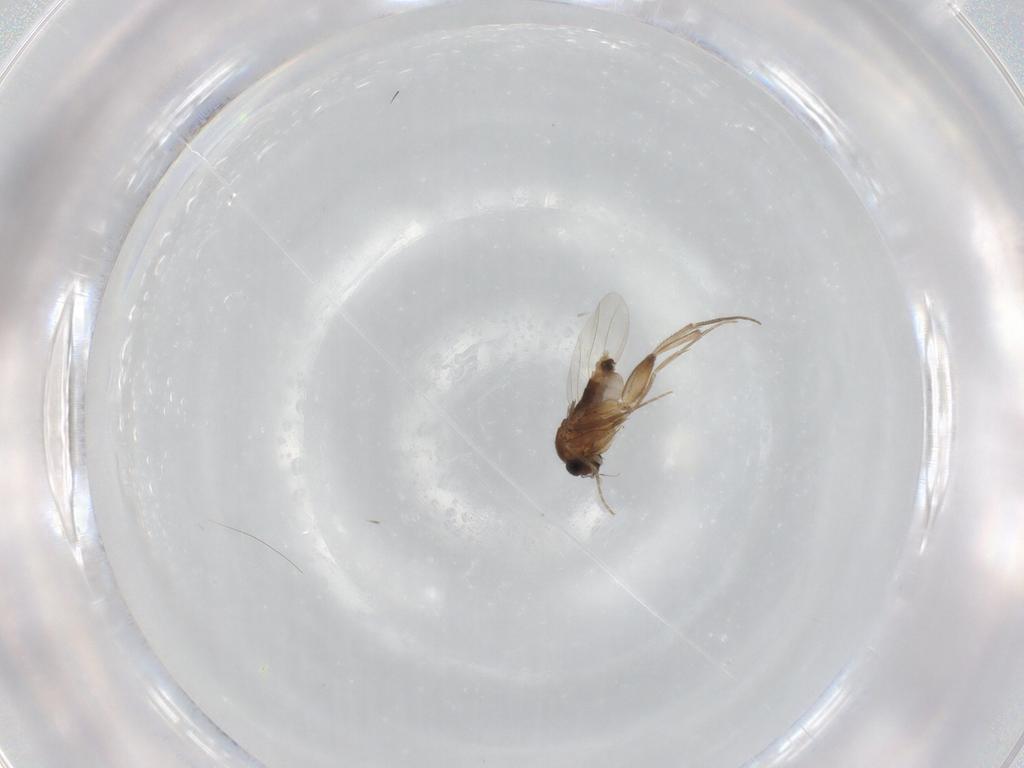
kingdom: Animalia
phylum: Arthropoda
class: Insecta
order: Diptera
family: Phoridae
